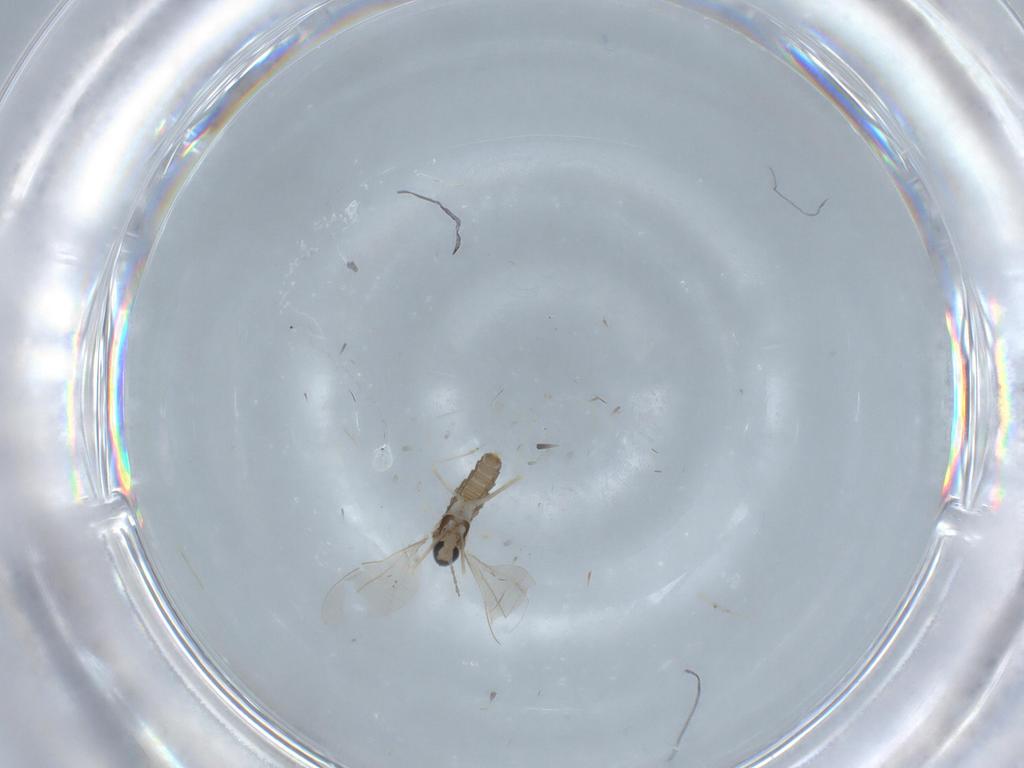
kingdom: Animalia
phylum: Arthropoda
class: Insecta
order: Diptera
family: Cecidomyiidae
